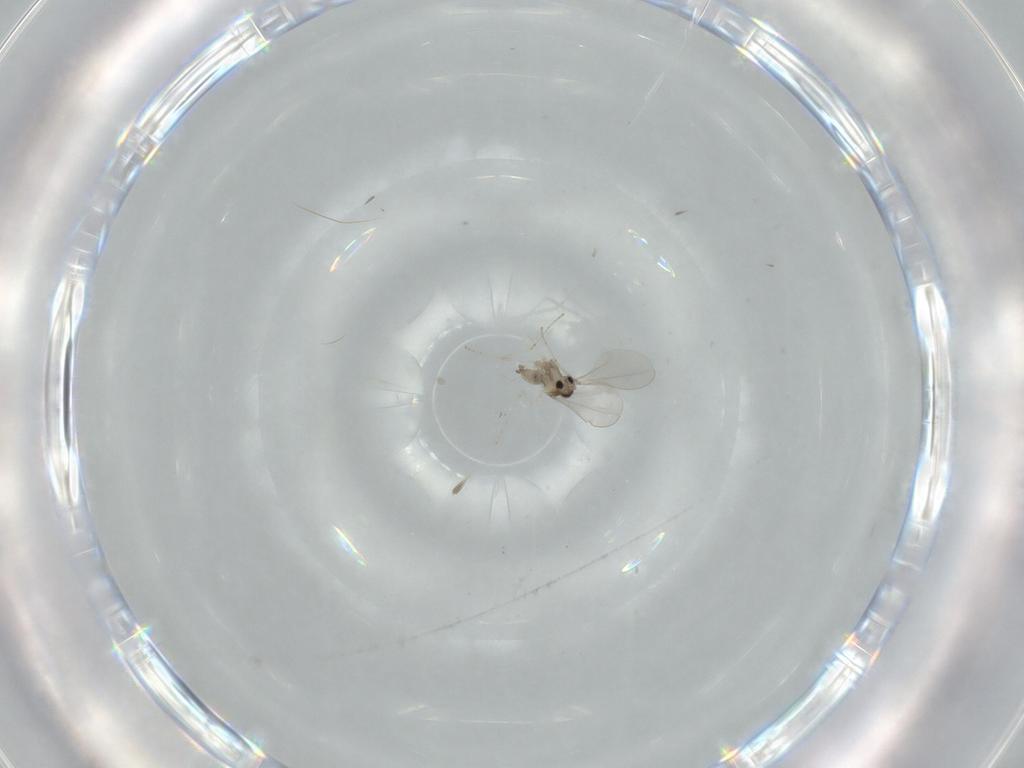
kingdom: Animalia
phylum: Arthropoda
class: Insecta
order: Diptera
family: Cecidomyiidae
